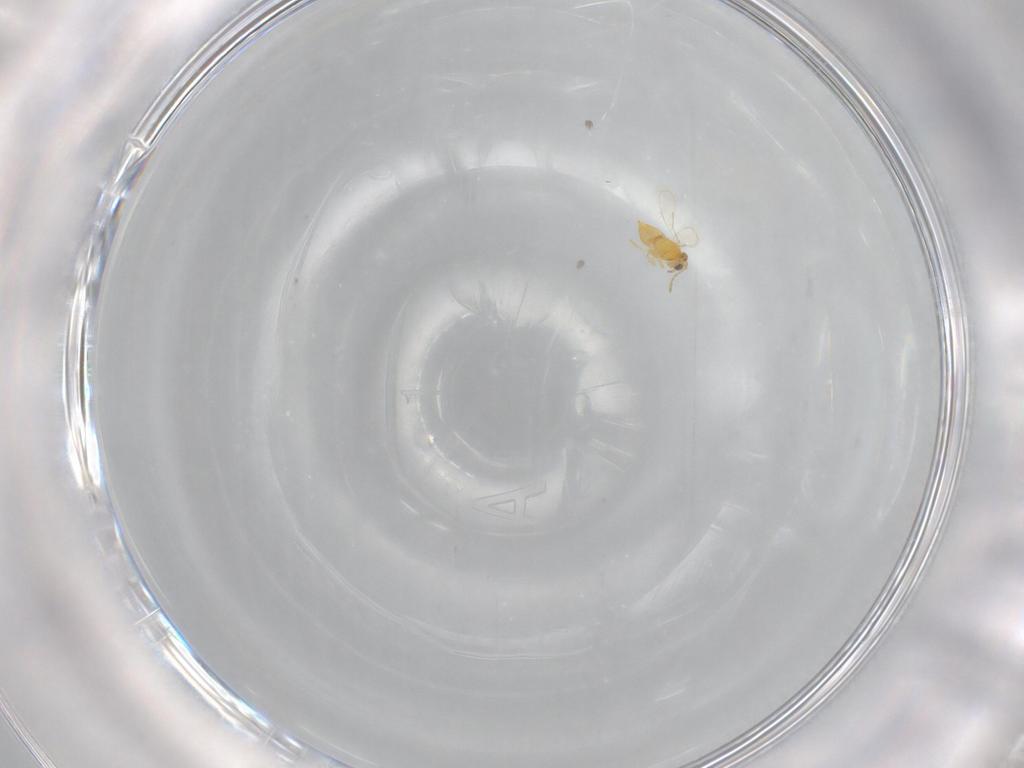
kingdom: Animalia
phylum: Arthropoda
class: Insecta
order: Hymenoptera
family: Aphelinidae
